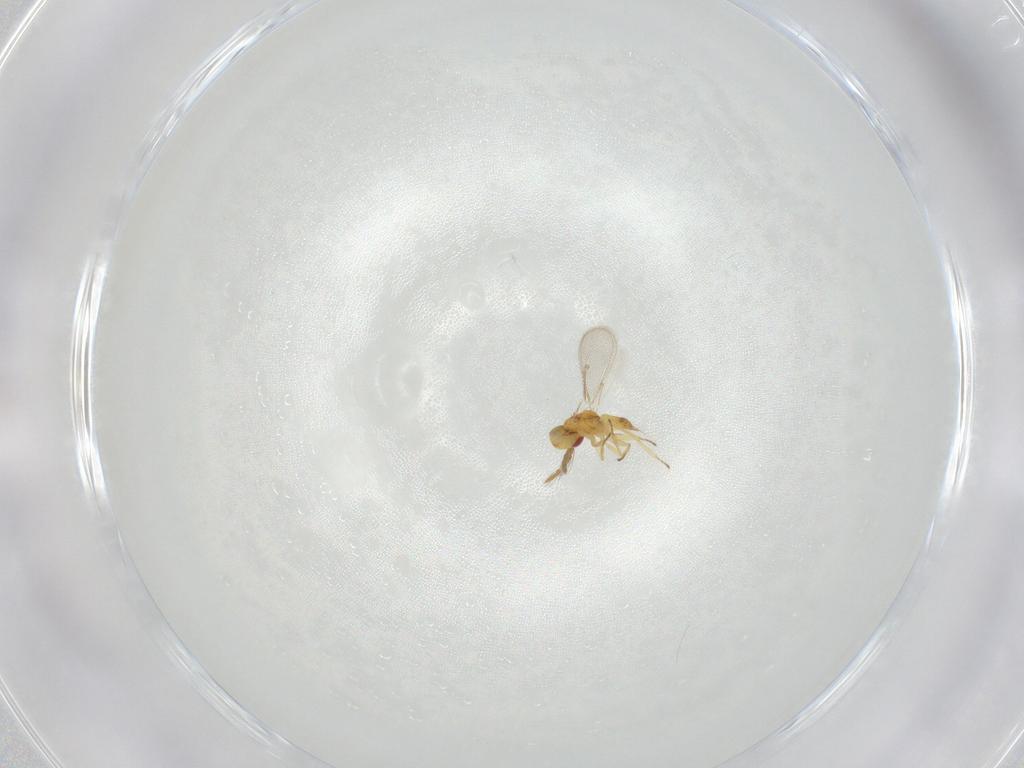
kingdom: Animalia
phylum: Arthropoda
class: Insecta
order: Hymenoptera
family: Eulophidae
